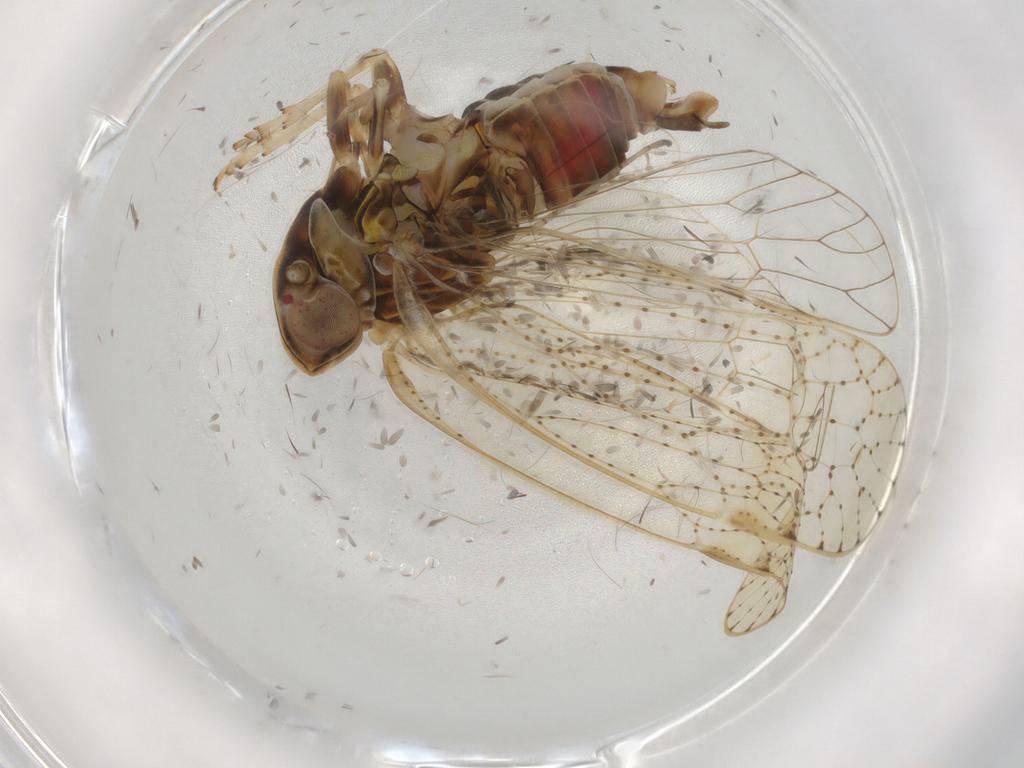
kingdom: Animalia
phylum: Arthropoda
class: Insecta
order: Hemiptera
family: Cixiidae
